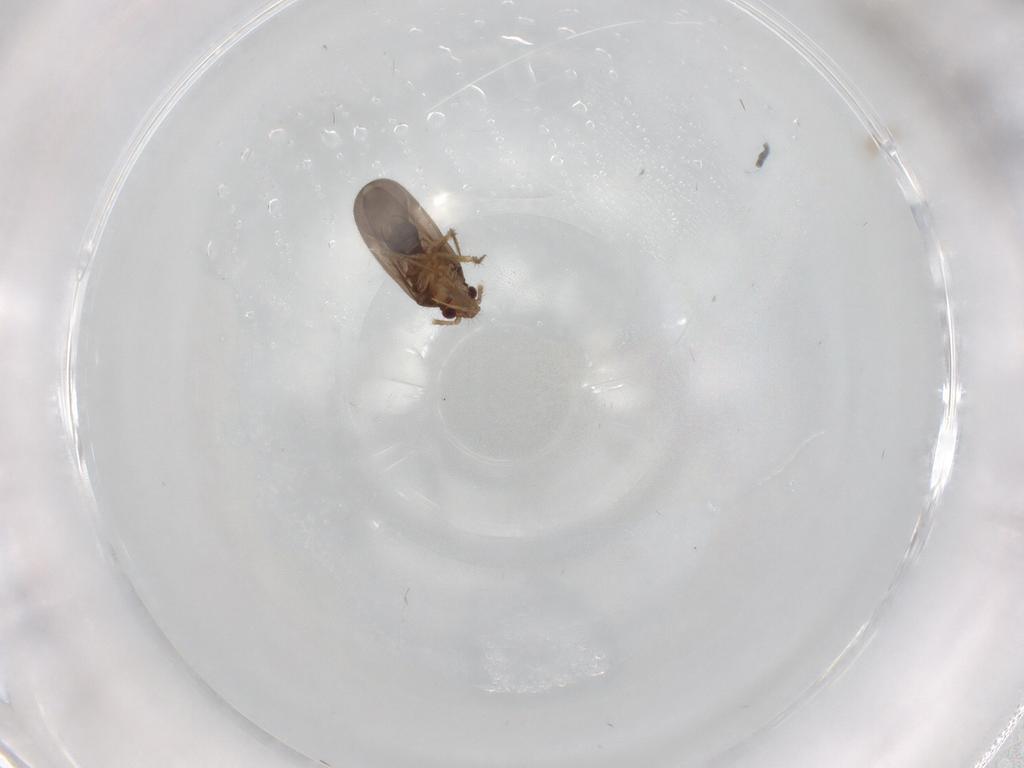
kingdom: Animalia
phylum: Arthropoda
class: Insecta
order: Hemiptera
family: Ceratocombidae
